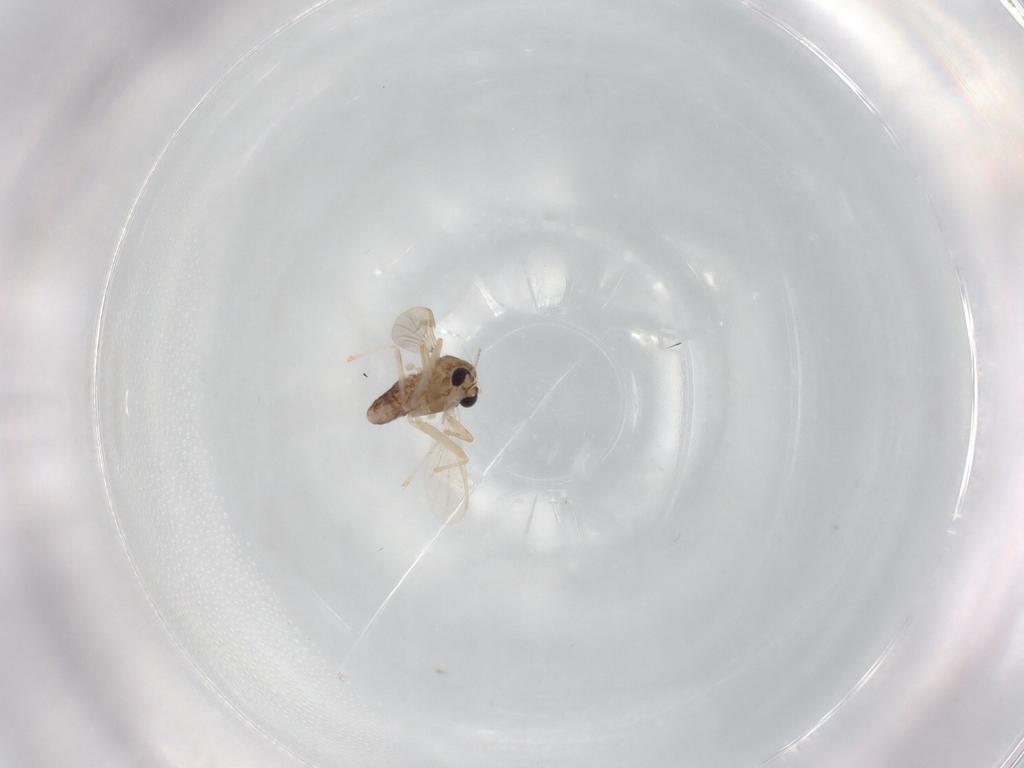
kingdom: Animalia
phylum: Arthropoda
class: Insecta
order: Diptera
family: Chironomidae
